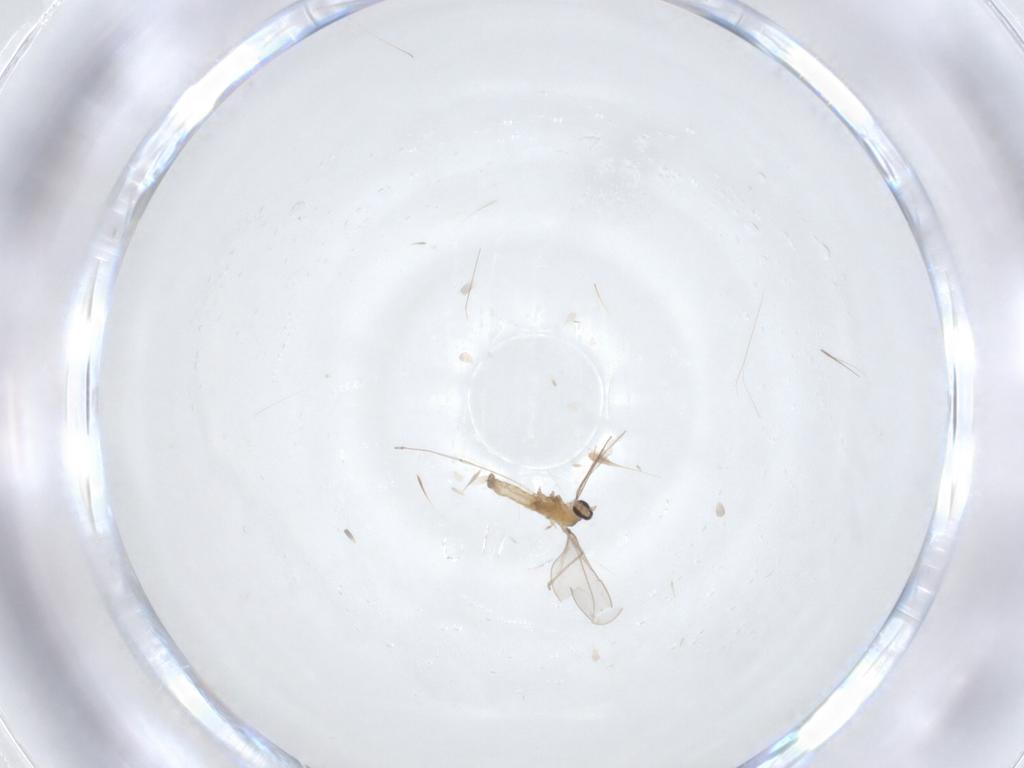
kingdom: Animalia
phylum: Arthropoda
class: Insecta
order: Diptera
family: Cecidomyiidae
